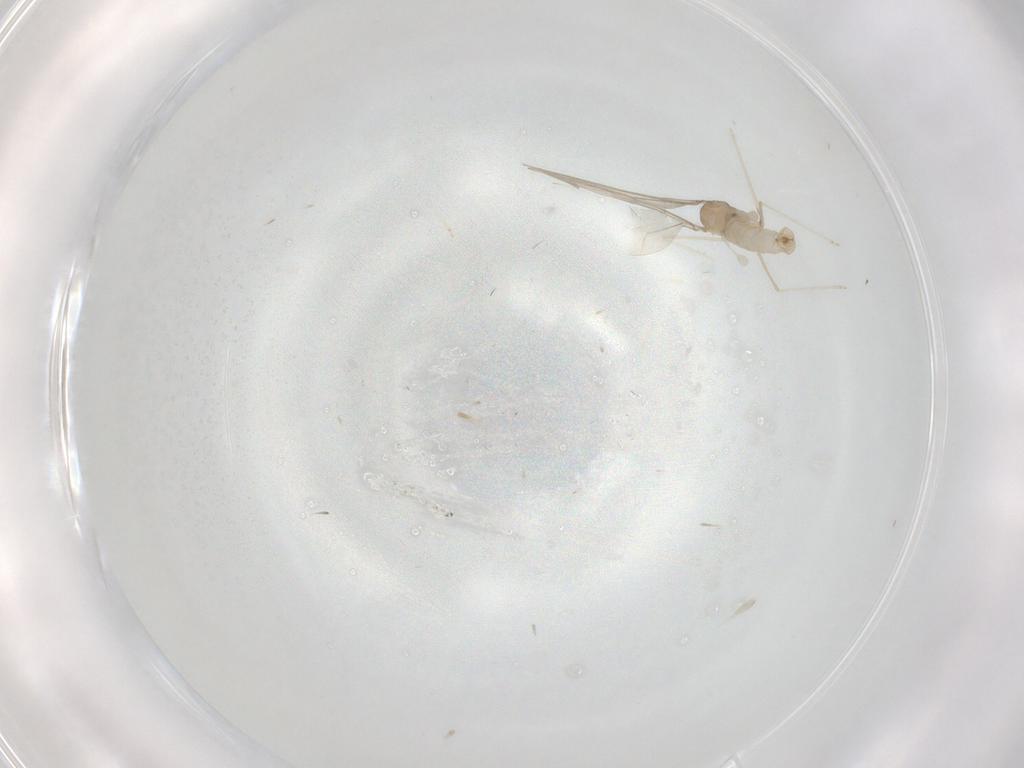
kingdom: Animalia
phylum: Arthropoda
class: Insecta
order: Diptera
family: Cecidomyiidae
